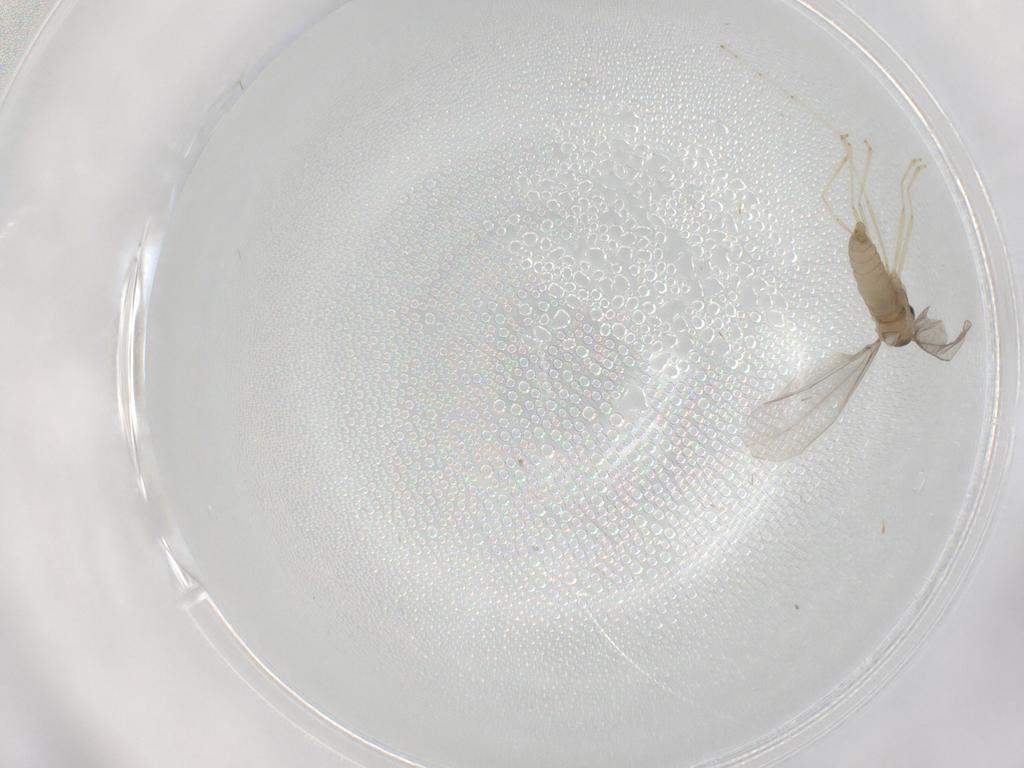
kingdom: Animalia
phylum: Arthropoda
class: Insecta
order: Diptera
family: Cecidomyiidae
